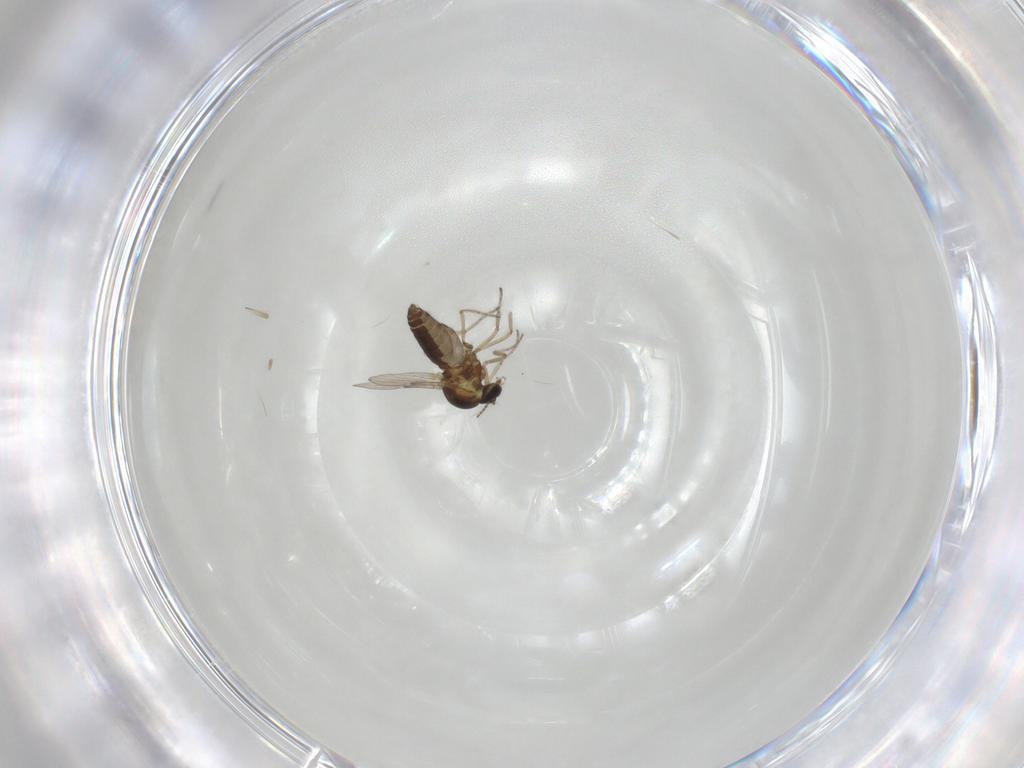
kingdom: Animalia
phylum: Arthropoda
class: Insecta
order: Diptera
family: Ceratopogonidae
